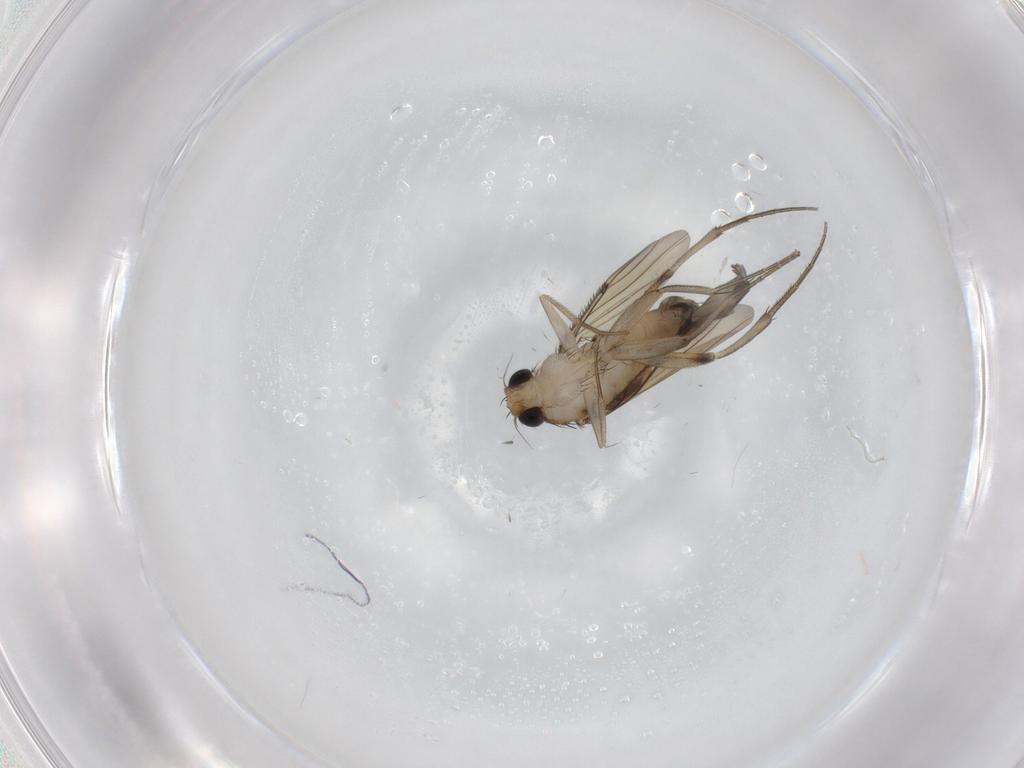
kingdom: Animalia
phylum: Arthropoda
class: Insecta
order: Diptera
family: Phoridae
